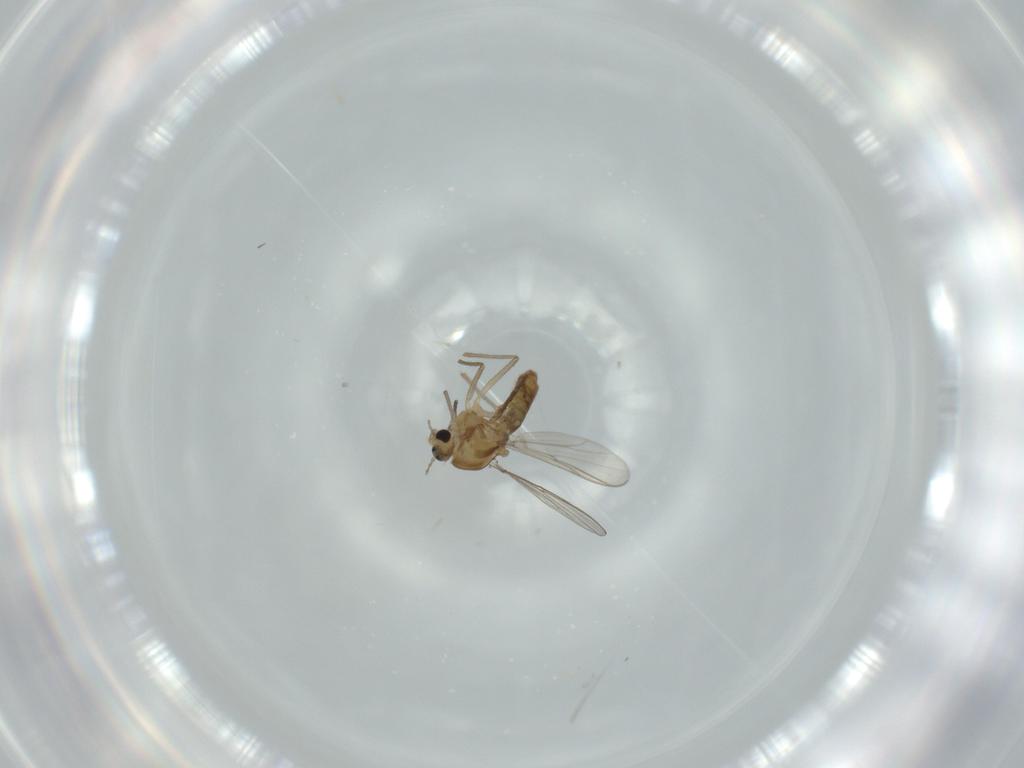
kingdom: Animalia
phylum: Arthropoda
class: Insecta
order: Diptera
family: Chironomidae
